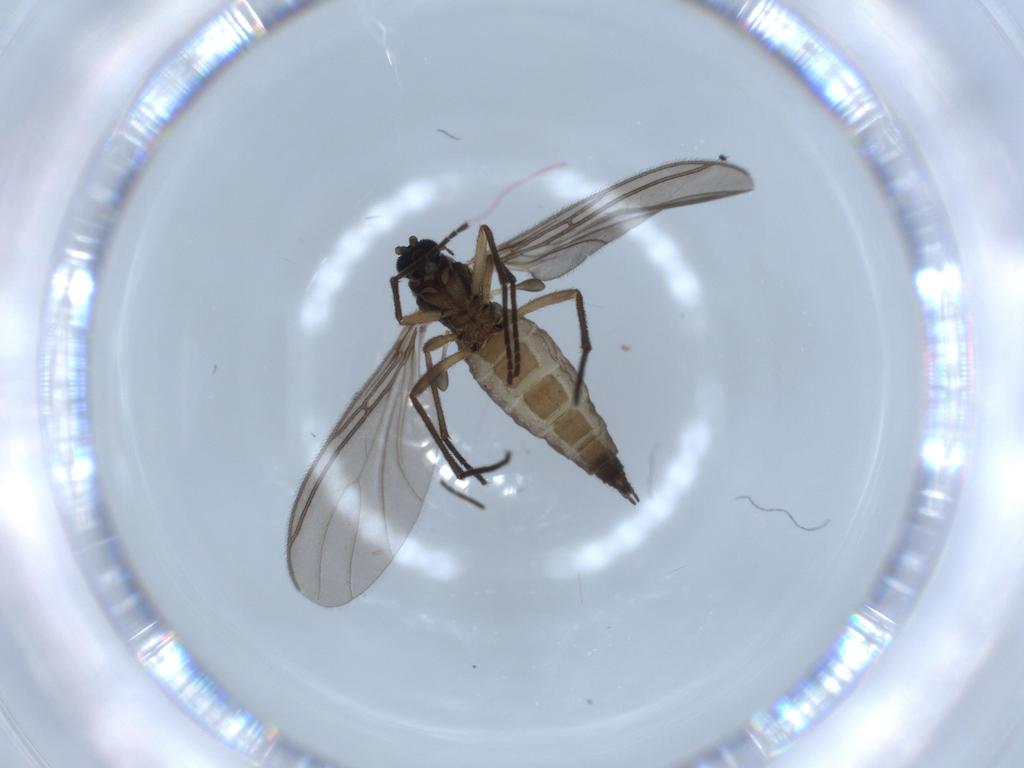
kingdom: Animalia
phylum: Arthropoda
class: Insecta
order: Diptera
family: Sciaridae
